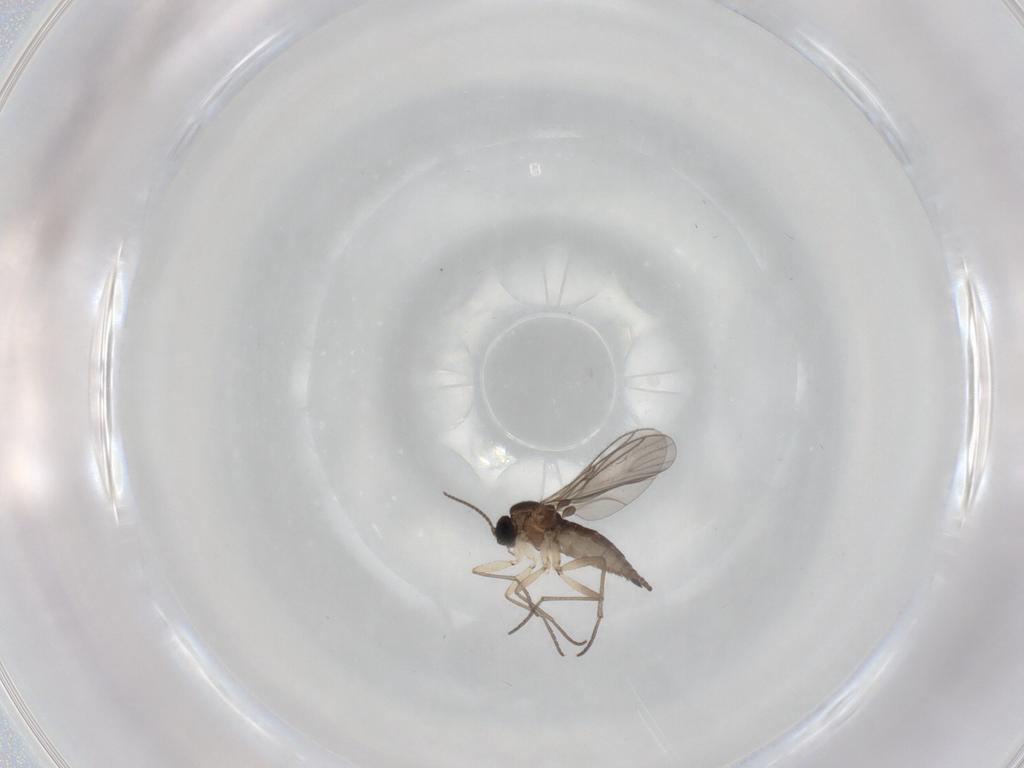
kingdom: Animalia
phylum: Arthropoda
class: Insecta
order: Diptera
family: Sciaridae
